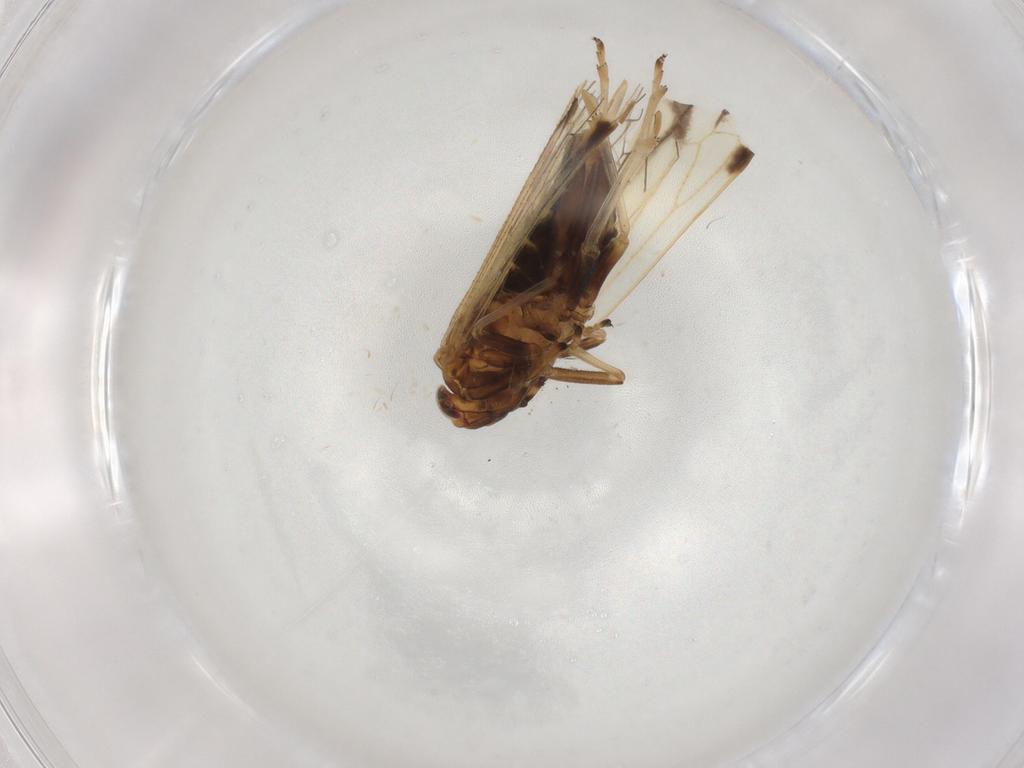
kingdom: Animalia
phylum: Arthropoda
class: Insecta
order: Hemiptera
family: Delphacidae
